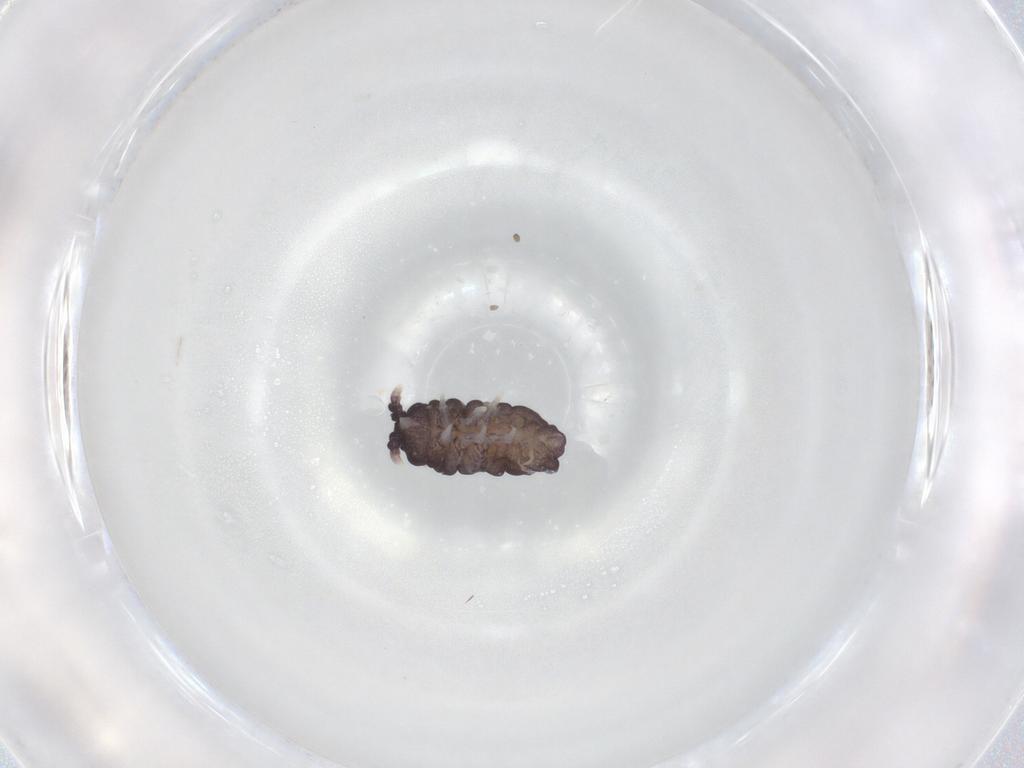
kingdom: Animalia
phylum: Arthropoda
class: Collembola
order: Poduromorpha
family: Neanuridae
